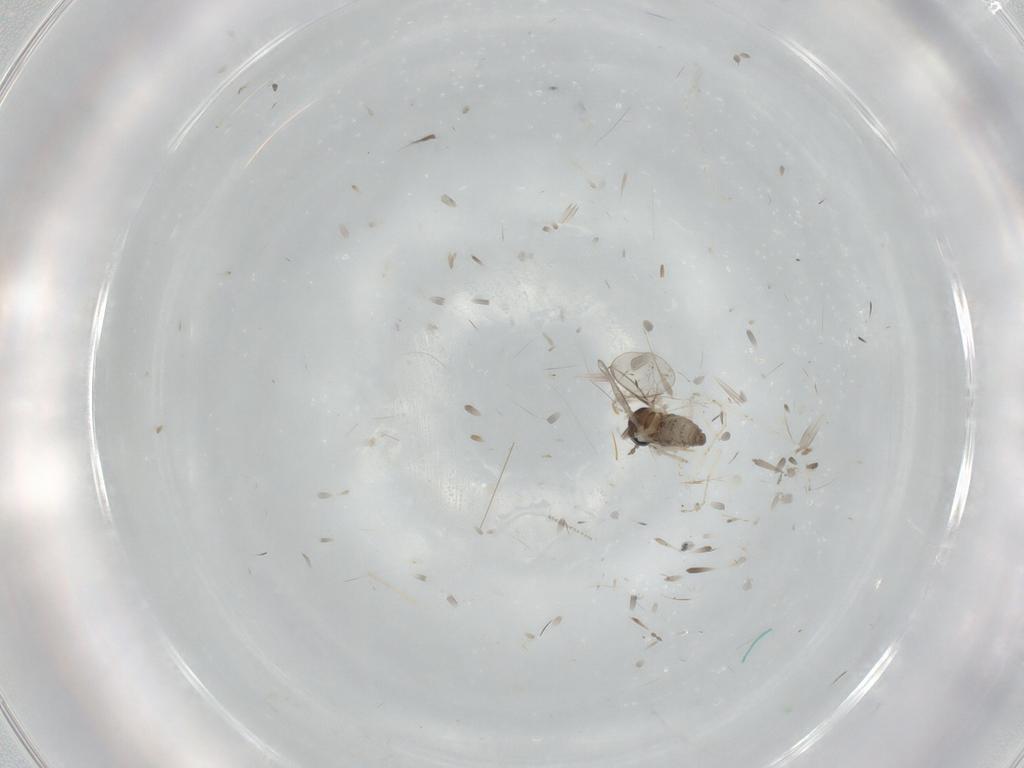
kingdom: Animalia
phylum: Arthropoda
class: Insecta
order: Diptera
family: Cecidomyiidae
